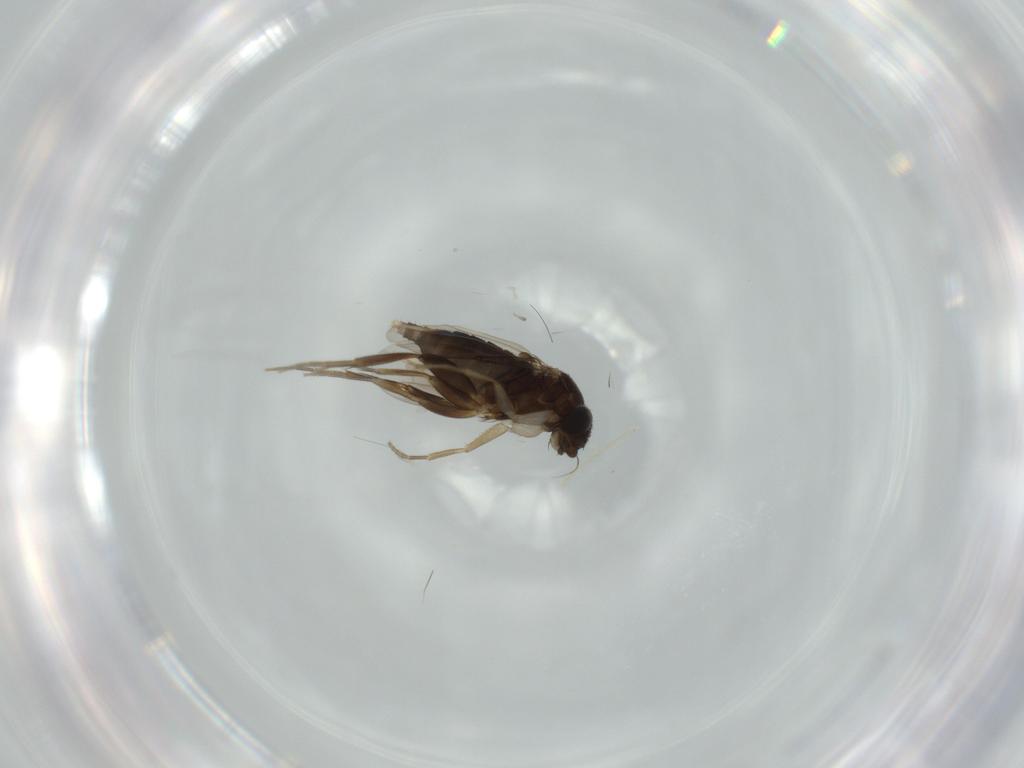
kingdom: Animalia
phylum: Arthropoda
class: Insecta
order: Diptera
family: Phoridae
